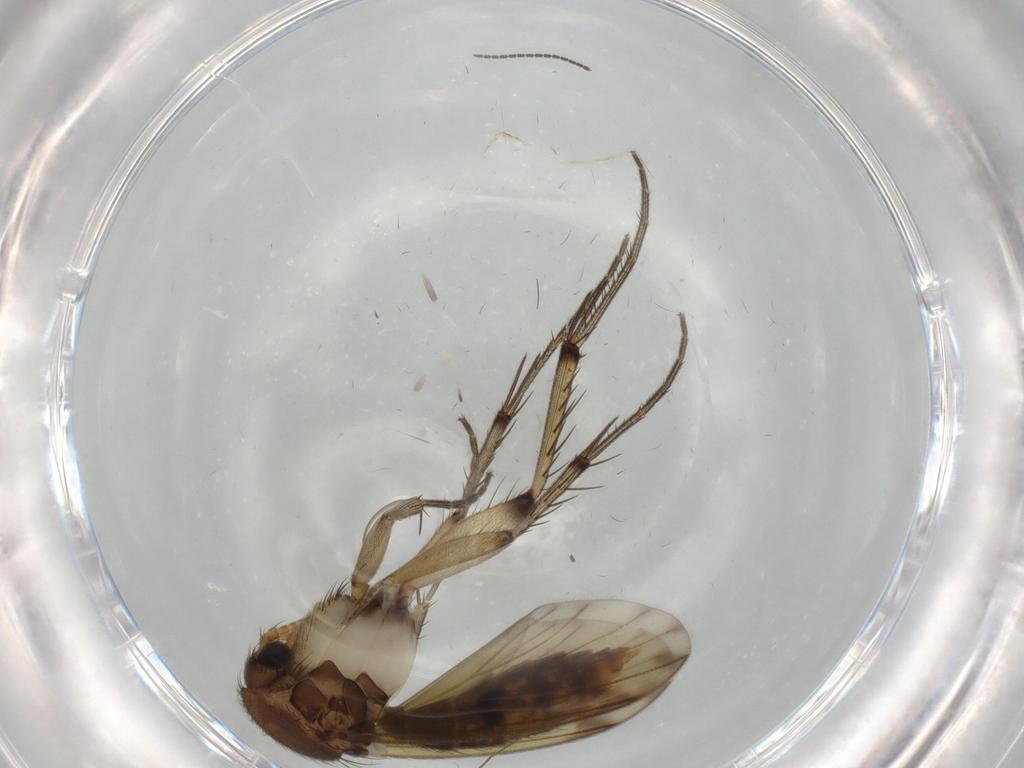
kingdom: Animalia
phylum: Arthropoda
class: Insecta
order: Diptera
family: Mycetophilidae
